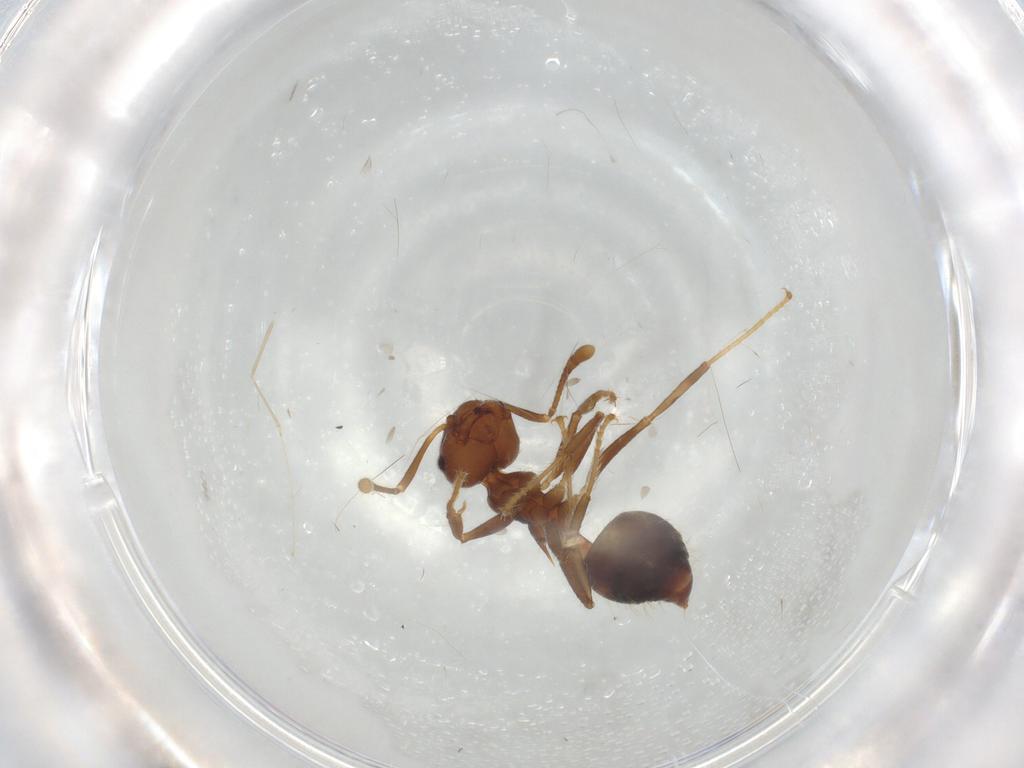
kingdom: Animalia
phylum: Arthropoda
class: Insecta
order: Hymenoptera
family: Formicidae
